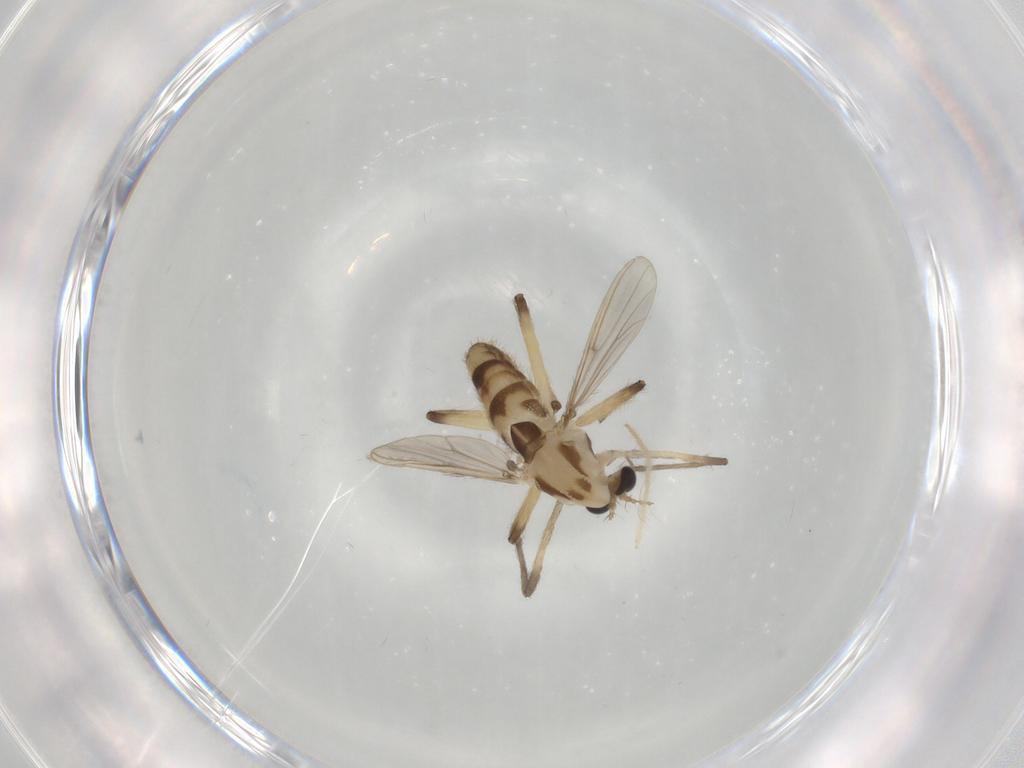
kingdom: Animalia
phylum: Arthropoda
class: Insecta
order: Diptera
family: Chironomidae
